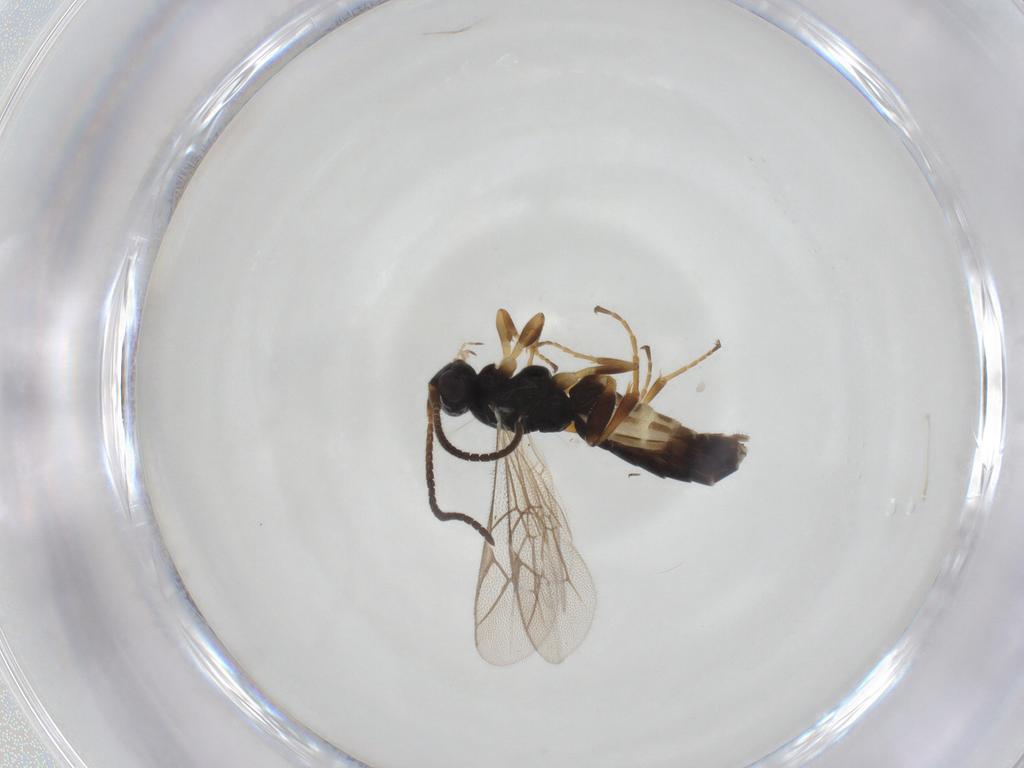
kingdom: Animalia
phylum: Arthropoda
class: Insecta
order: Hymenoptera
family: Ichneumonidae
